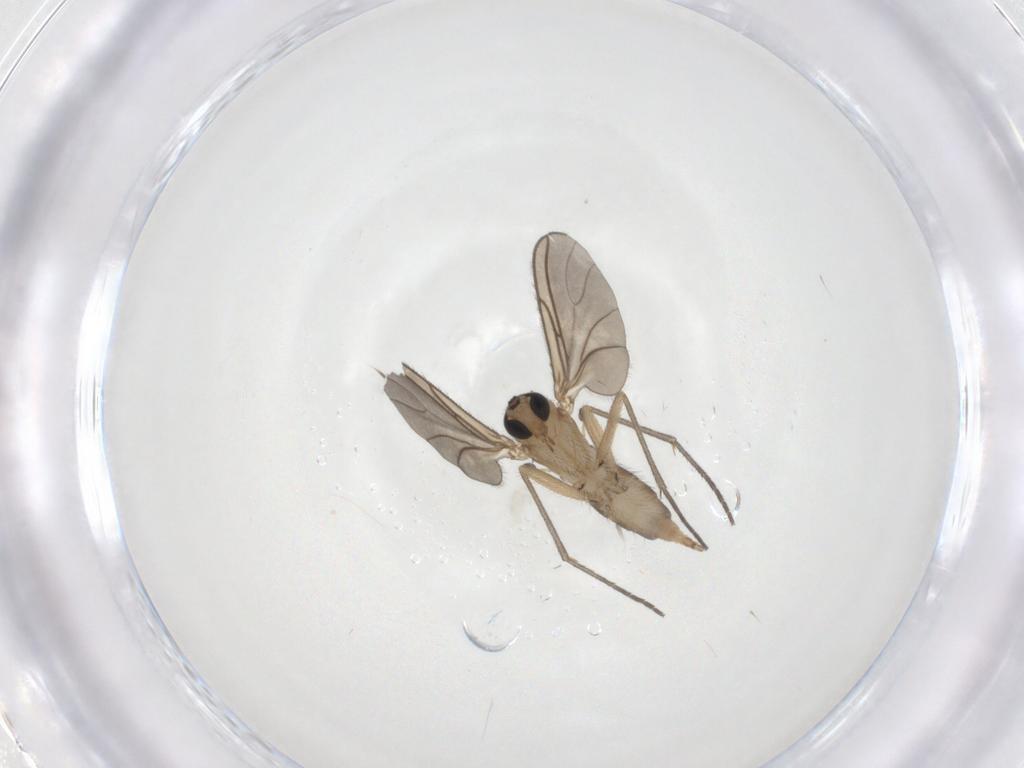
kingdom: Animalia
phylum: Arthropoda
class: Insecta
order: Diptera
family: Sciaridae
